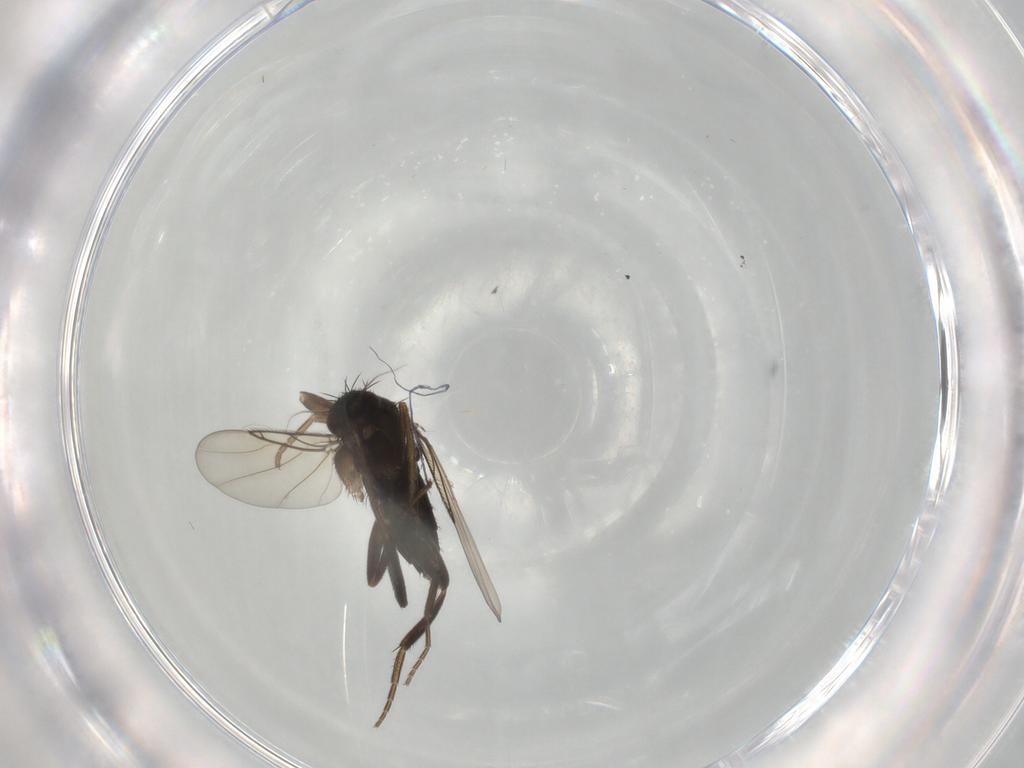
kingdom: Animalia
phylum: Arthropoda
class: Insecta
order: Diptera
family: Phoridae
